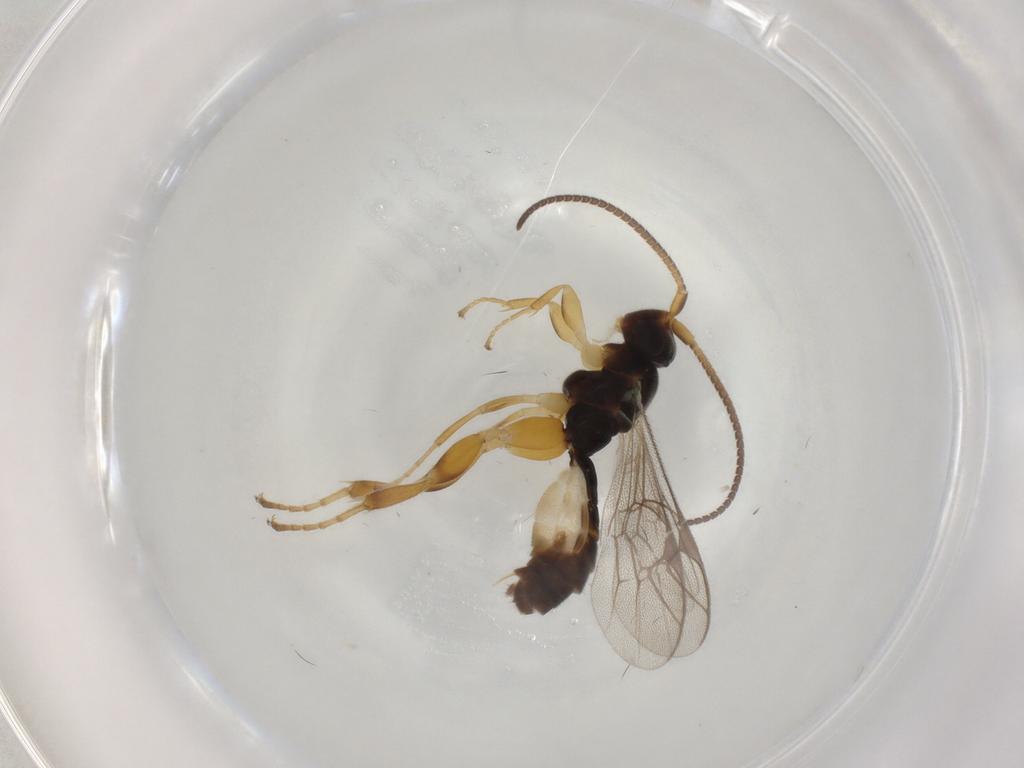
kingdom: Animalia
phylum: Arthropoda
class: Insecta
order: Hymenoptera
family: Ichneumonidae
